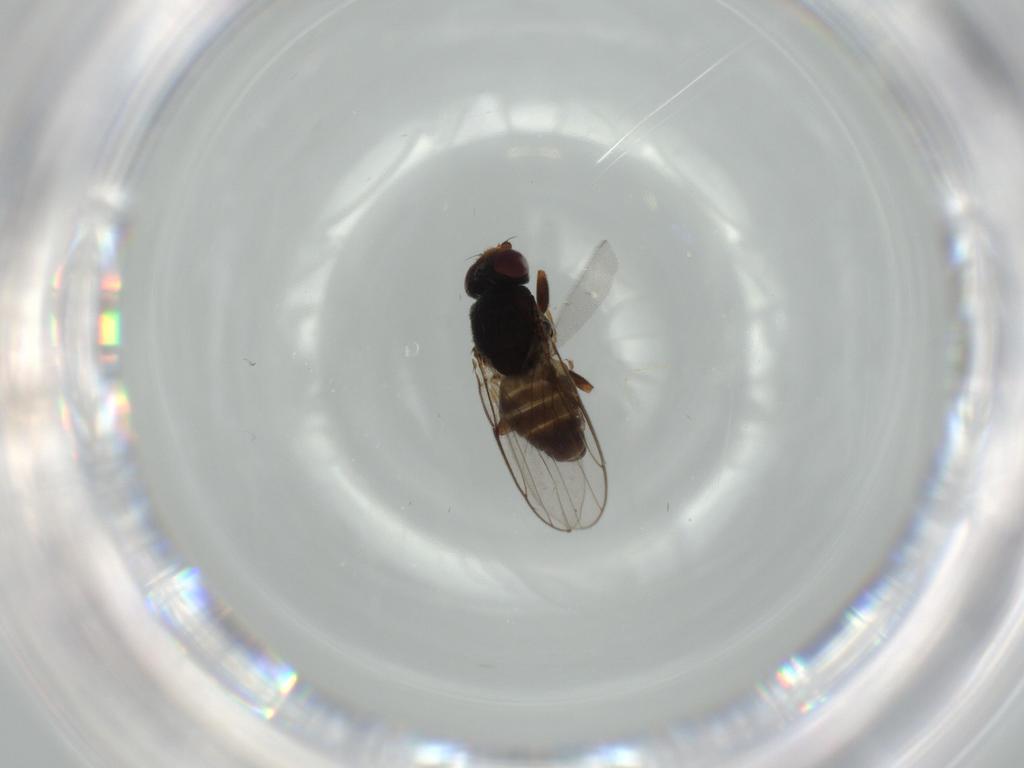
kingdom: Animalia
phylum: Arthropoda
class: Insecta
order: Diptera
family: Chloropidae
